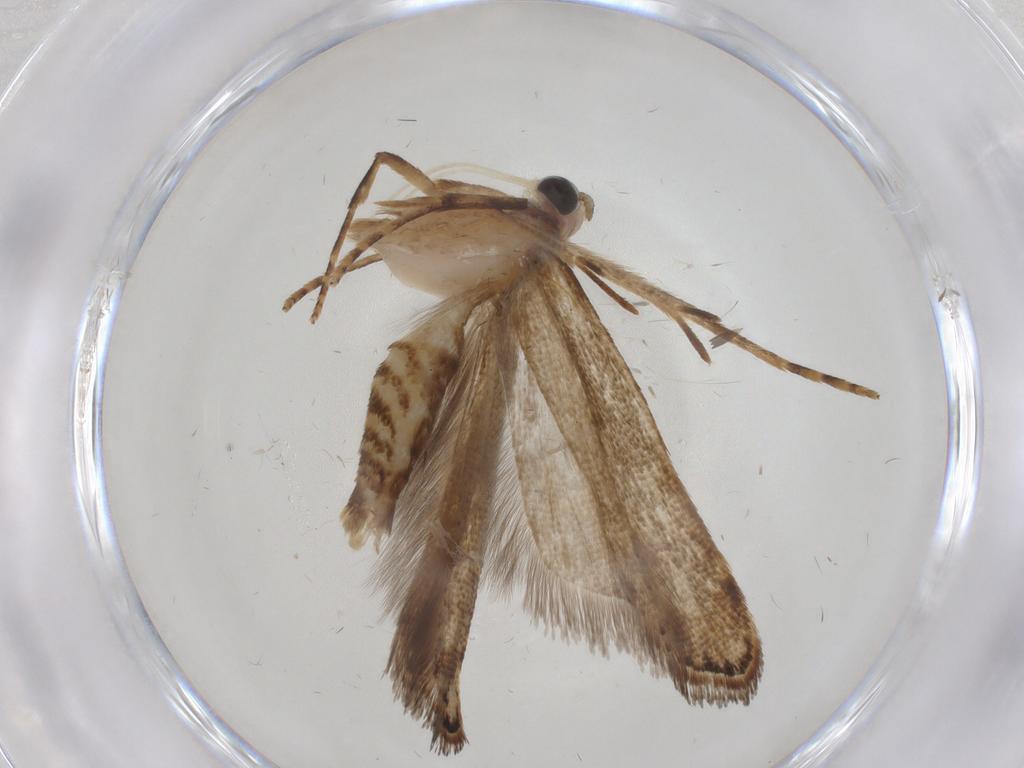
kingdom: Animalia
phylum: Arthropoda
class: Insecta
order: Lepidoptera
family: Gelechiidae
